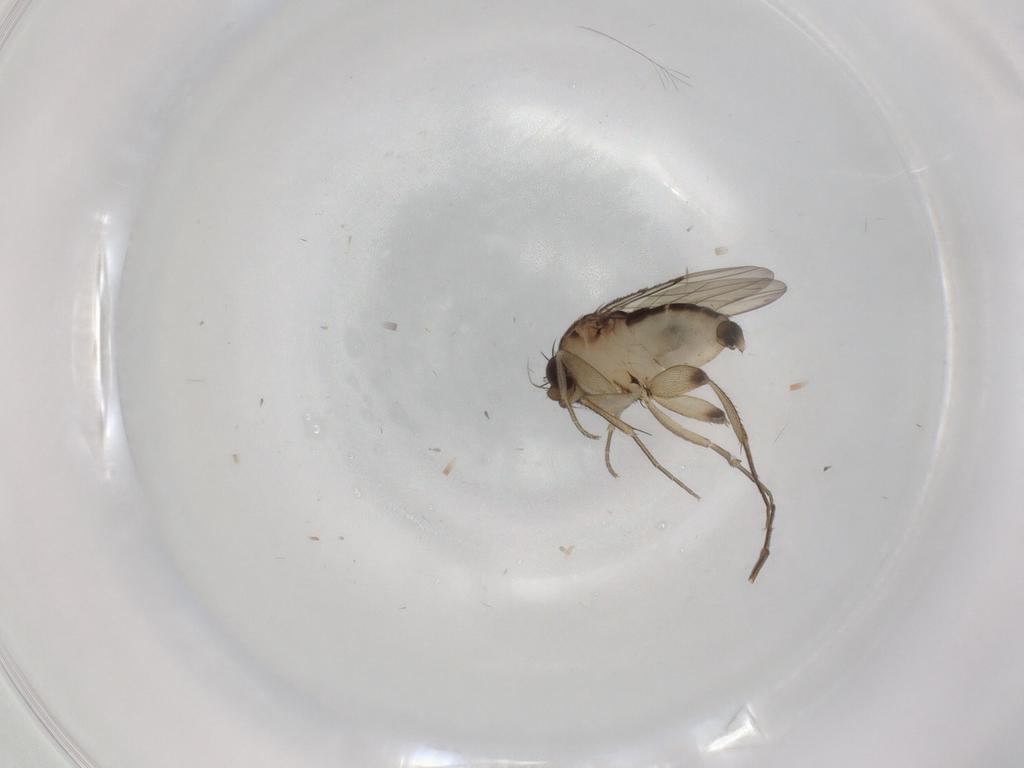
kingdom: Animalia
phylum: Arthropoda
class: Insecta
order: Diptera
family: Phoridae
